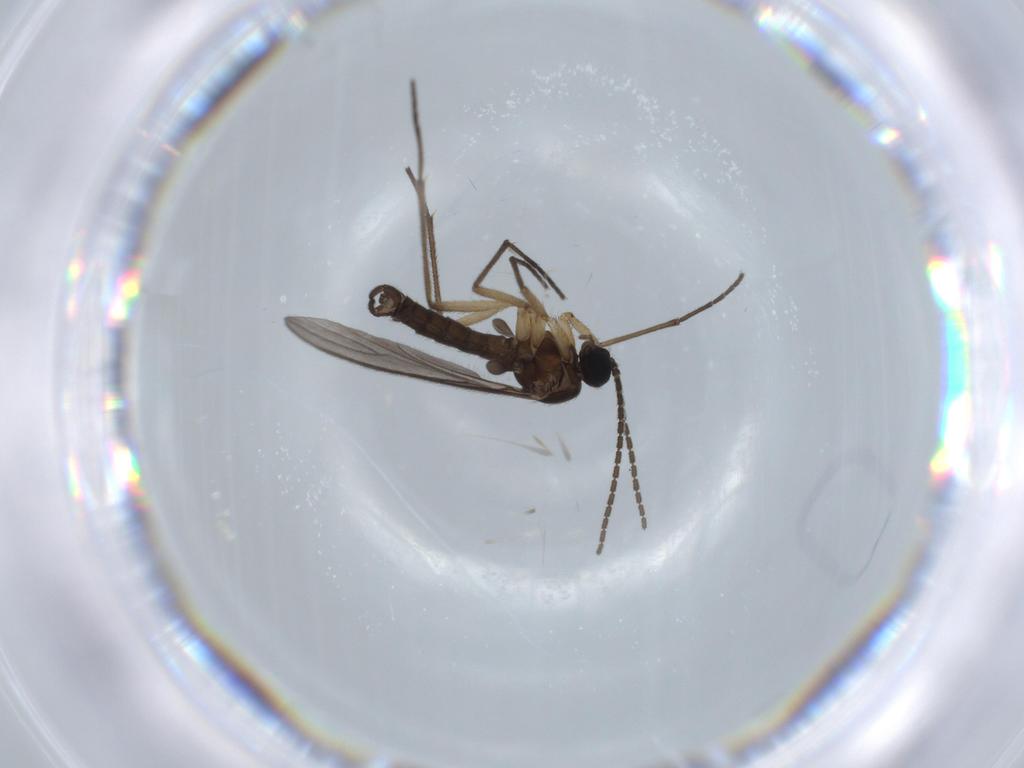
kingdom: Animalia
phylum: Arthropoda
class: Insecta
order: Diptera
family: Sciaridae
